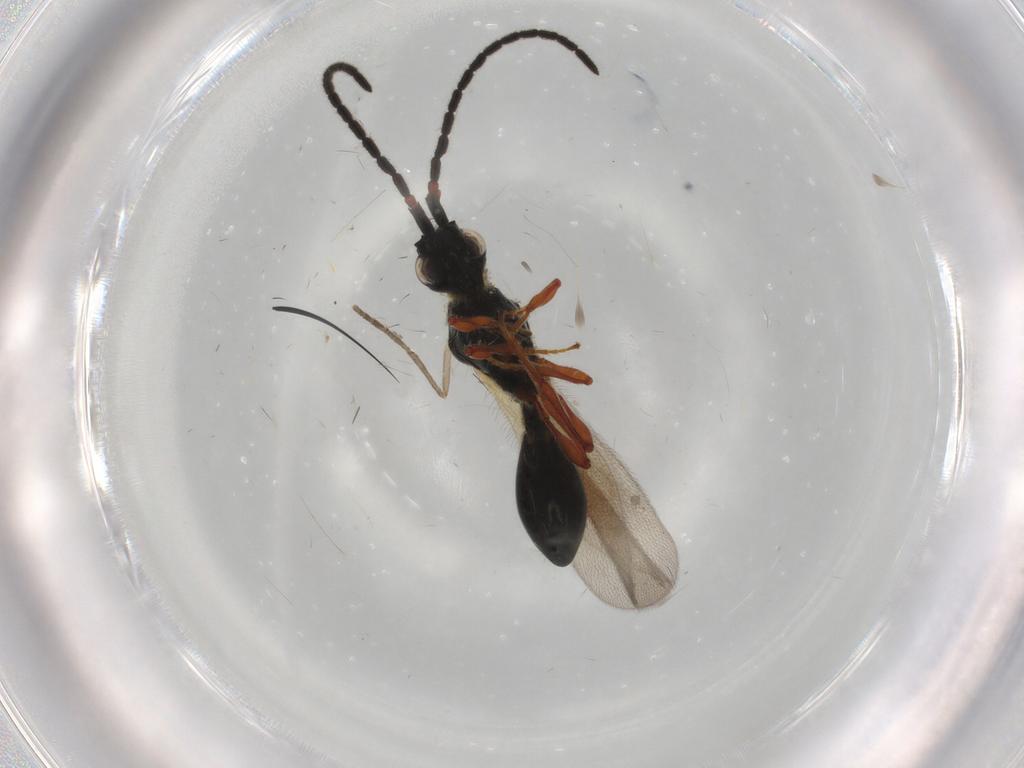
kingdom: Animalia
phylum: Arthropoda
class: Insecta
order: Hymenoptera
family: Diapriidae
